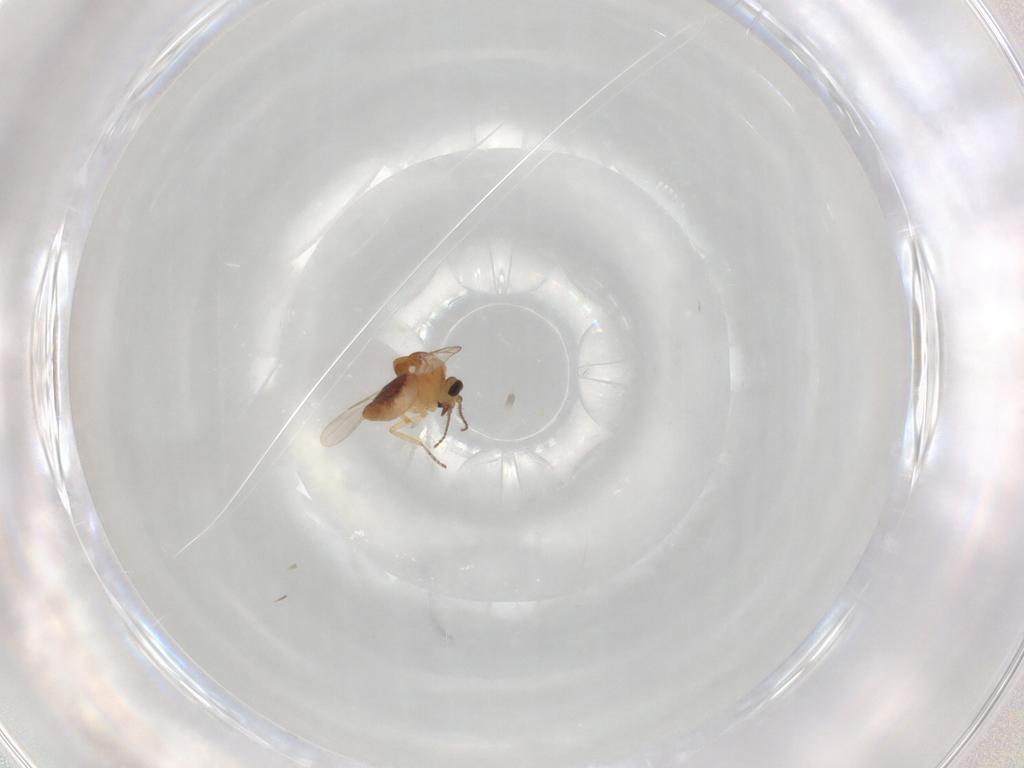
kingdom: Animalia
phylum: Arthropoda
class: Insecta
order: Diptera
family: Ceratopogonidae
